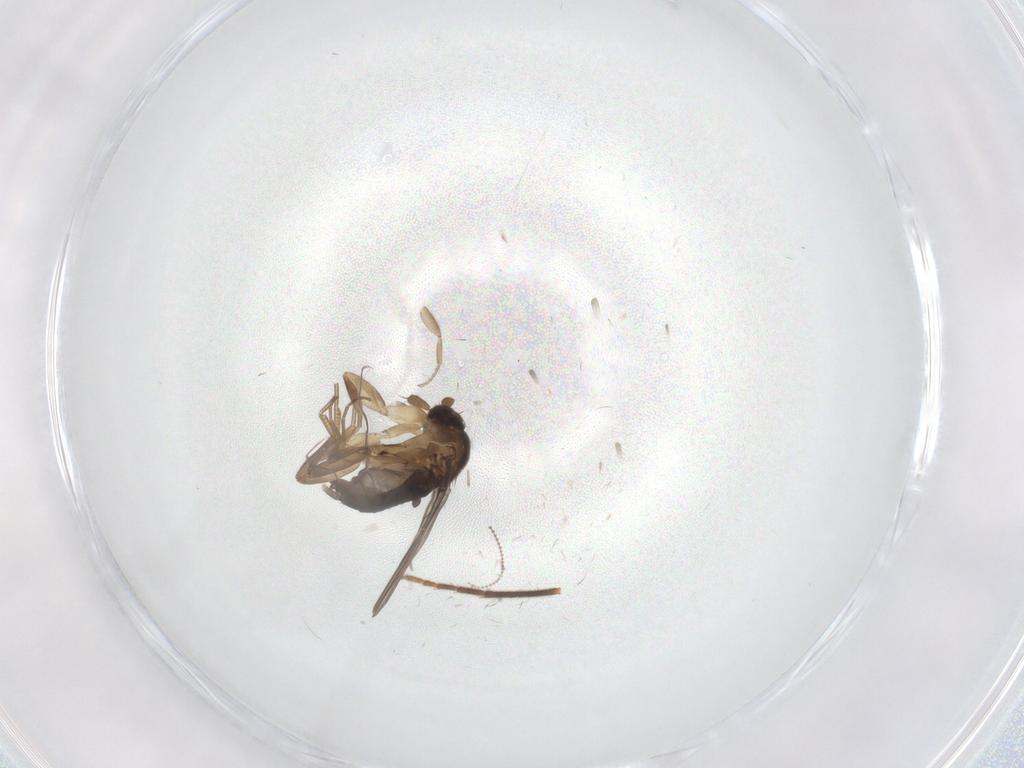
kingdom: Animalia
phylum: Arthropoda
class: Insecta
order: Diptera
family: Phoridae
